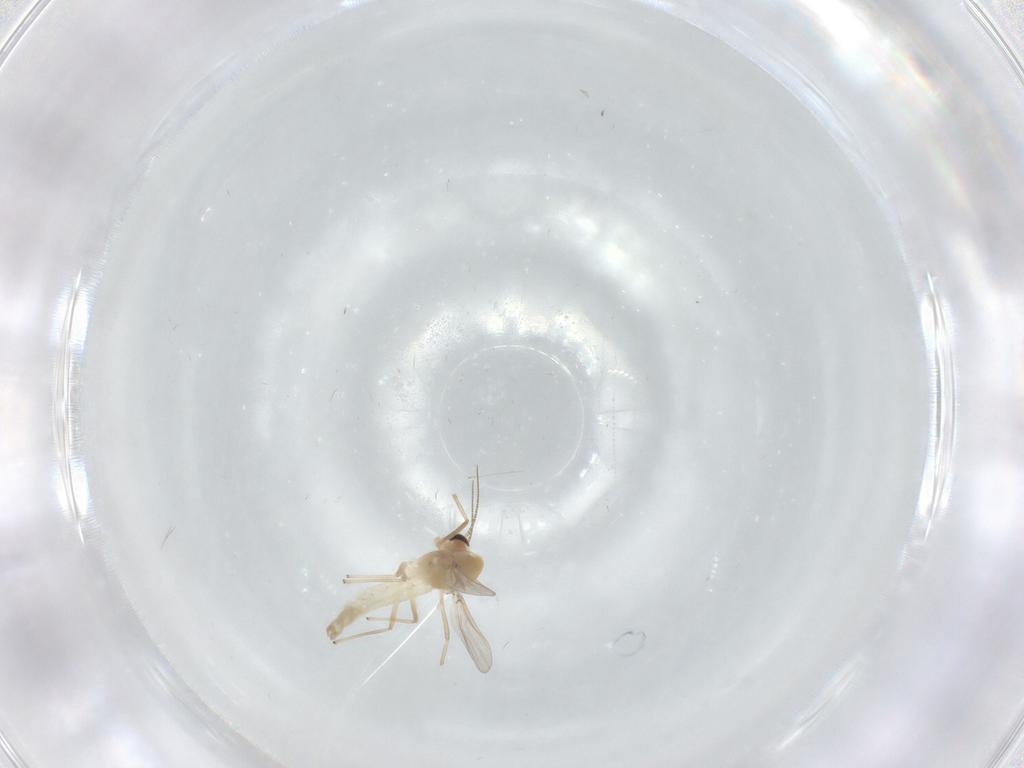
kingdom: Animalia
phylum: Arthropoda
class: Insecta
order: Diptera
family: Chironomidae
